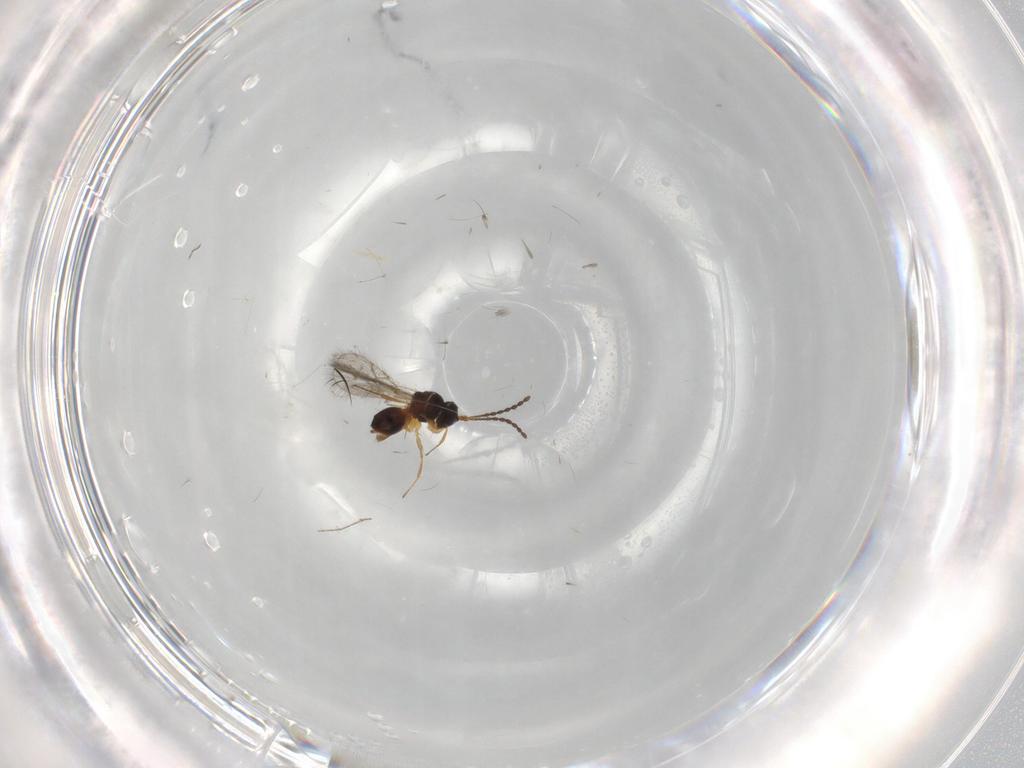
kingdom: Animalia
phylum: Arthropoda
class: Insecta
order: Hymenoptera
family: Figitidae
